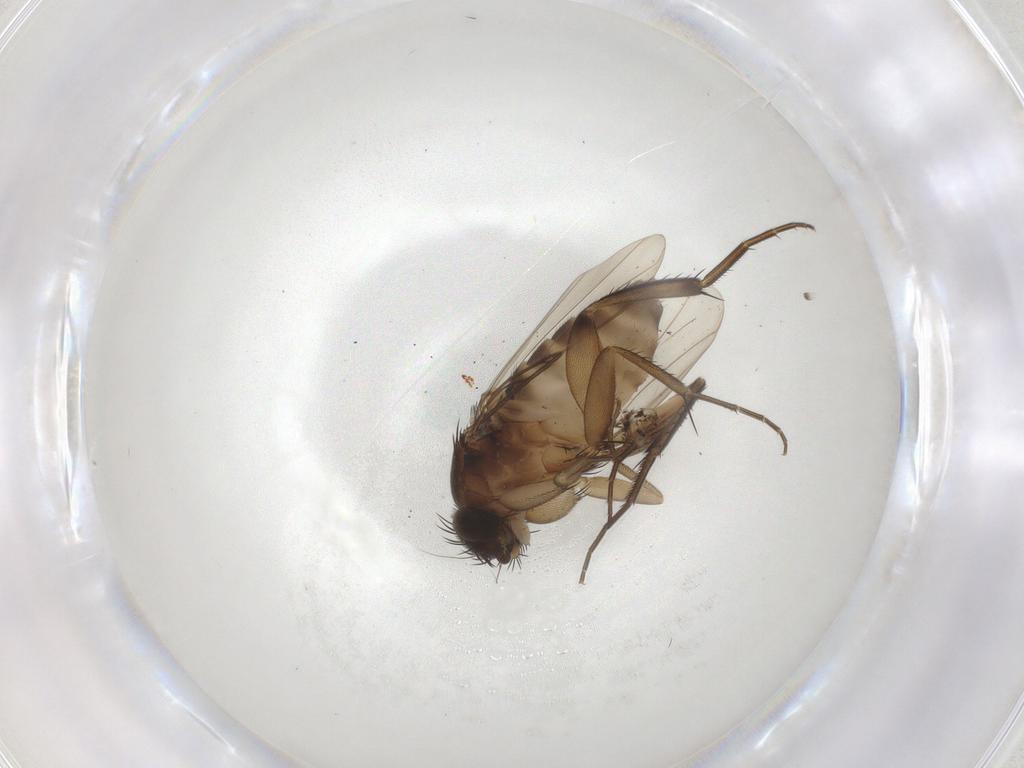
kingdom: Animalia
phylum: Arthropoda
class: Insecta
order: Diptera
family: Phoridae
